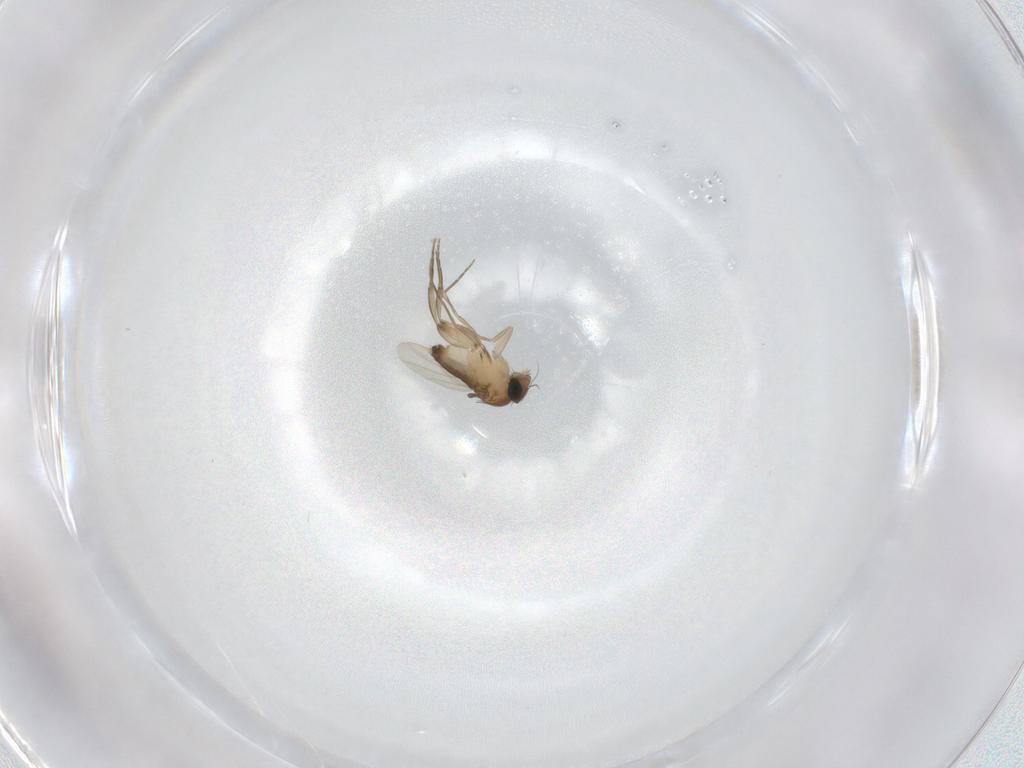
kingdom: Animalia
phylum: Arthropoda
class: Insecta
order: Diptera
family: Phoridae
